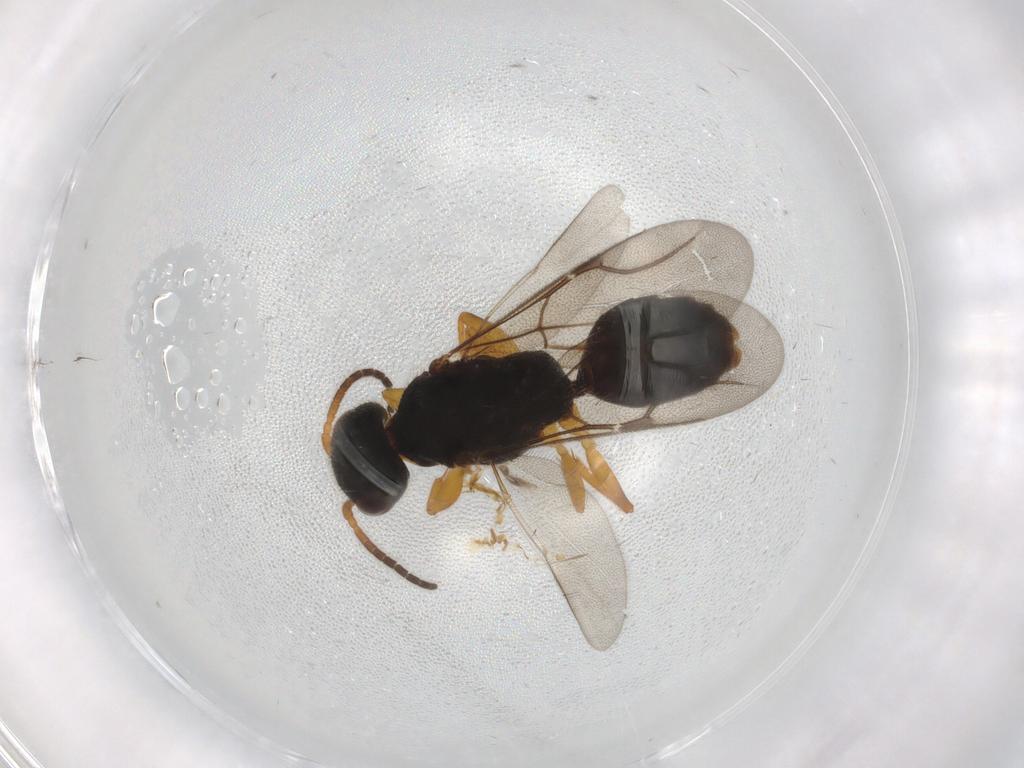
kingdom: Animalia
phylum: Arthropoda
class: Insecta
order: Hymenoptera
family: Bethylidae
